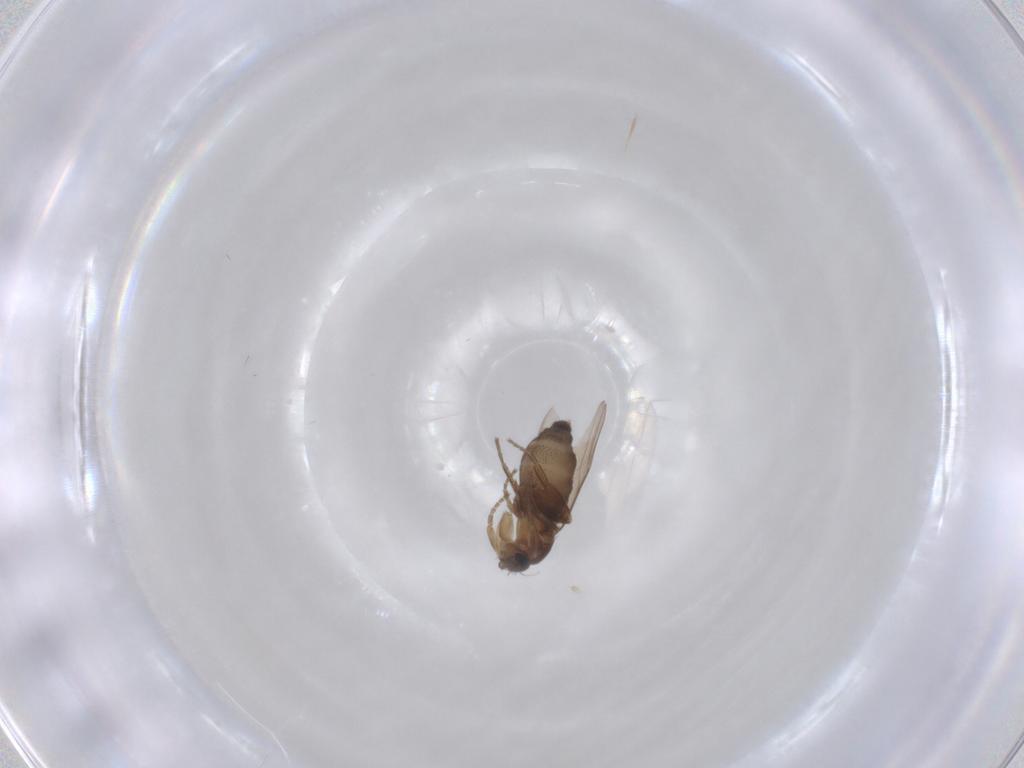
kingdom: Animalia
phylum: Arthropoda
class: Insecta
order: Diptera
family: Phoridae
